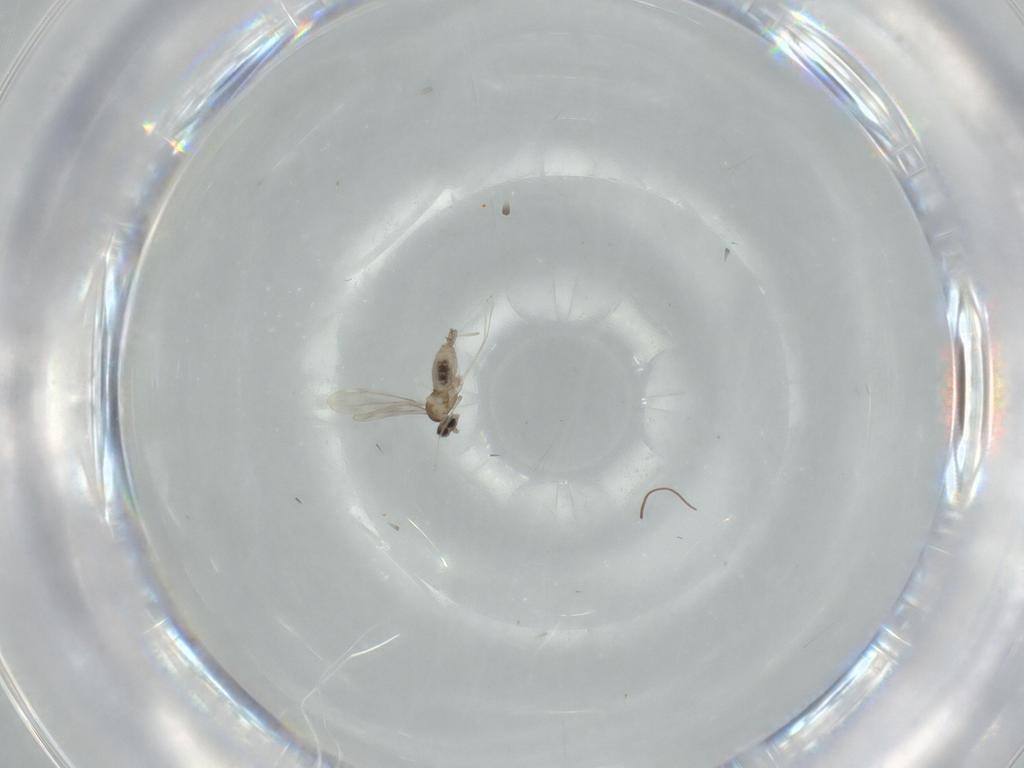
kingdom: Animalia
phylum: Arthropoda
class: Insecta
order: Diptera
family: Cecidomyiidae
